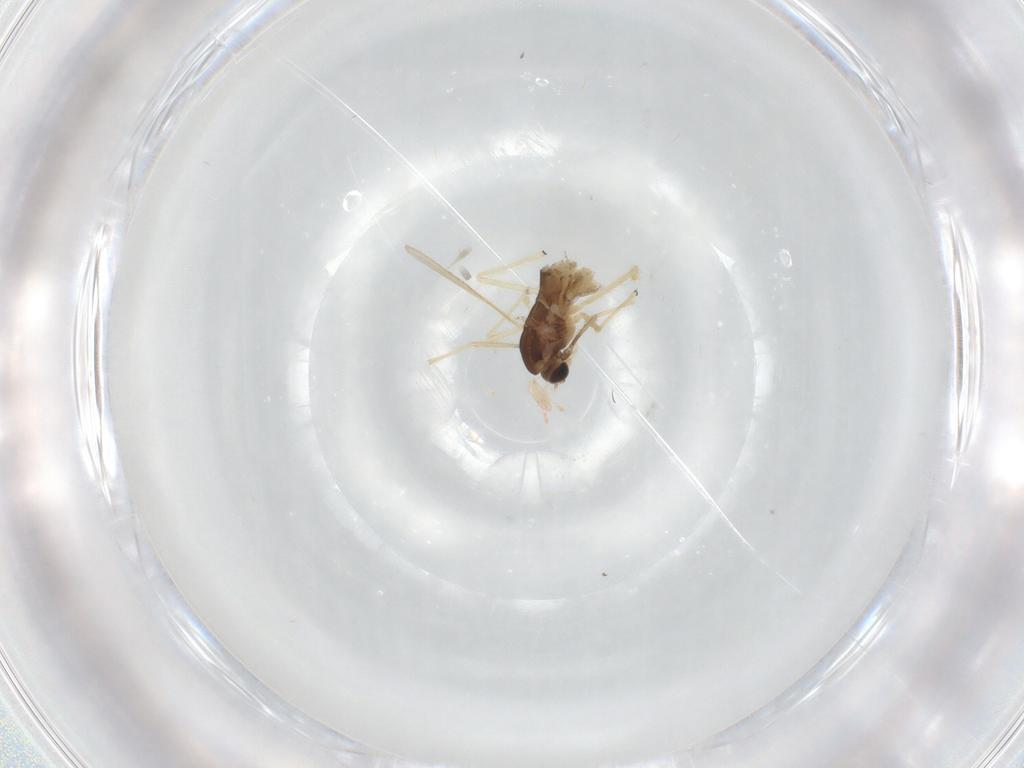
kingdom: Animalia
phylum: Arthropoda
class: Insecta
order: Diptera
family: Chironomidae
